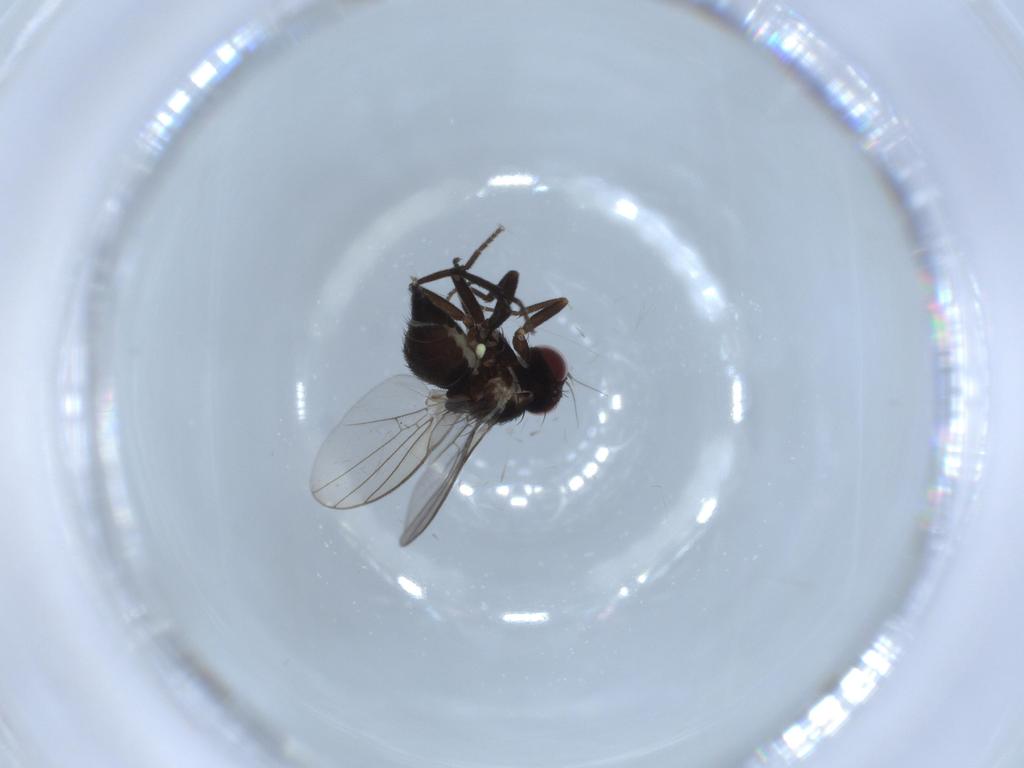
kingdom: Animalia
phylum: Arthropoda
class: Insecta
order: Diptera
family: Agromyzidae
